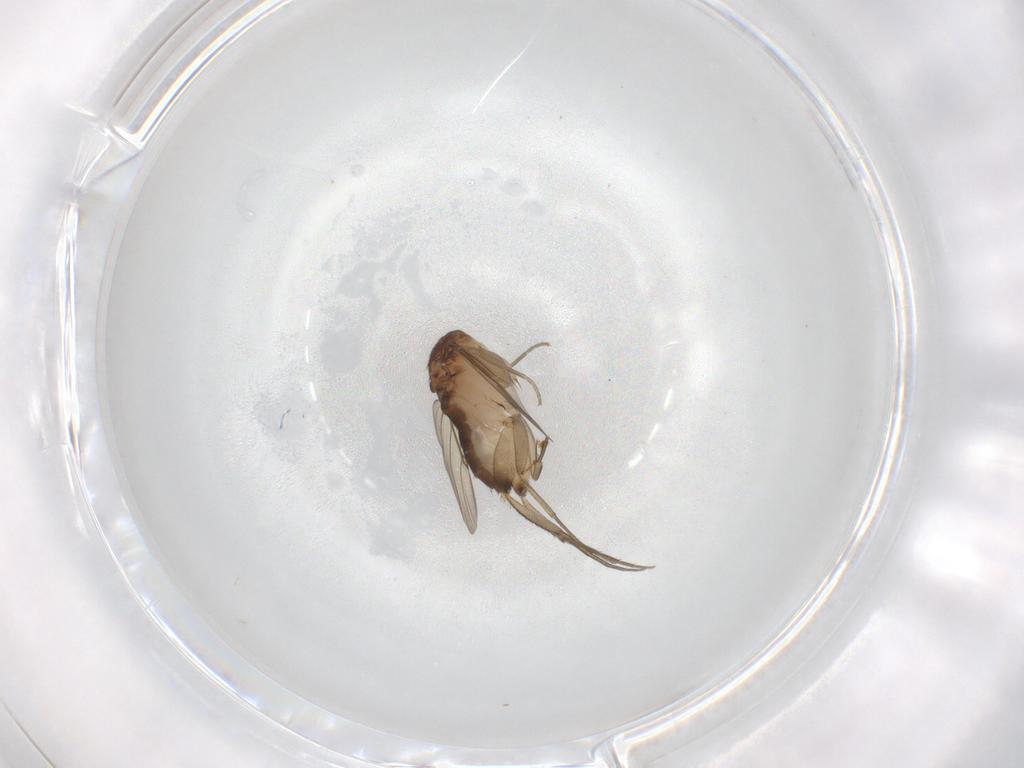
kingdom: Animalia
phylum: Arthropoda
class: Insecta
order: Diptera
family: Phoridae
